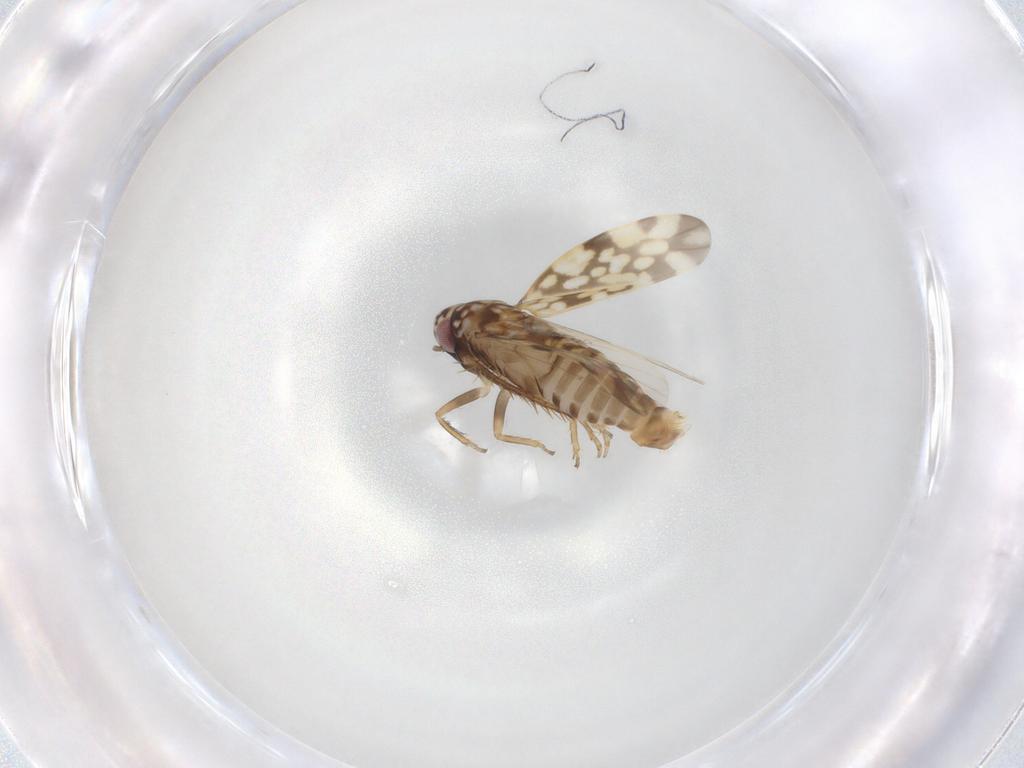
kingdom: Animalia
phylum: Arthropoda
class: Insecta
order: Hemiptera
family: Cicadellidae
